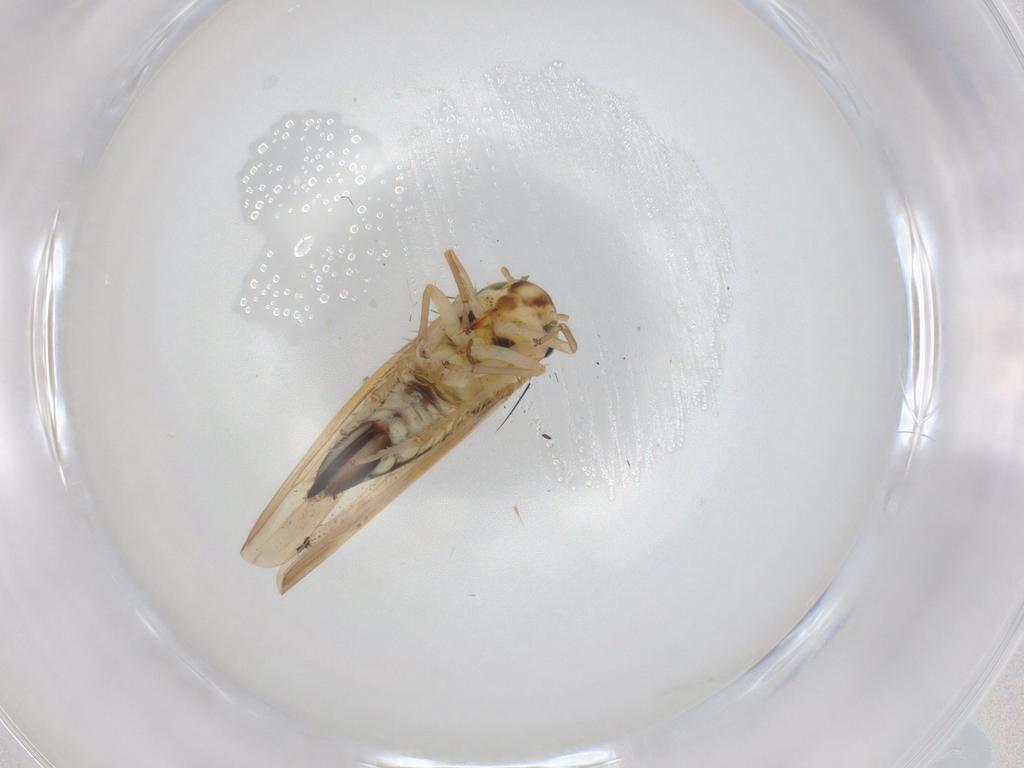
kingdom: Animalia
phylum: Arthropoda
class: Insecta
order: Hemiptera
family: Cicadellidae
